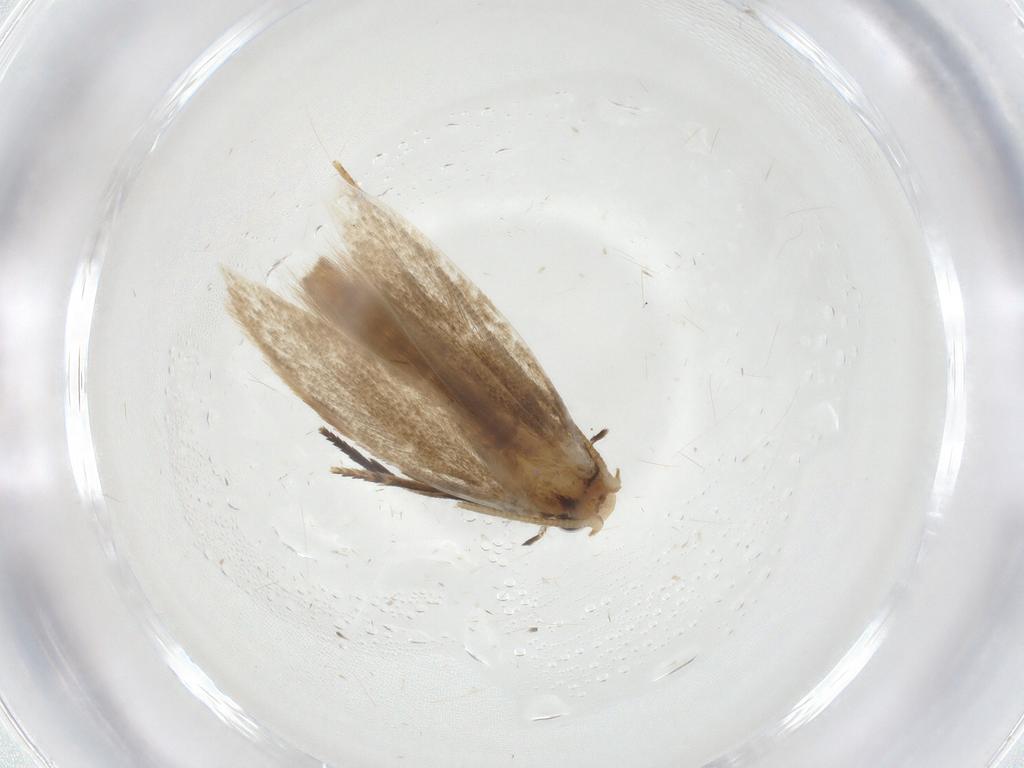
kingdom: Animalia
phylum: Arthropoda
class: Insecta
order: Lepidoptera
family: Tineidae
